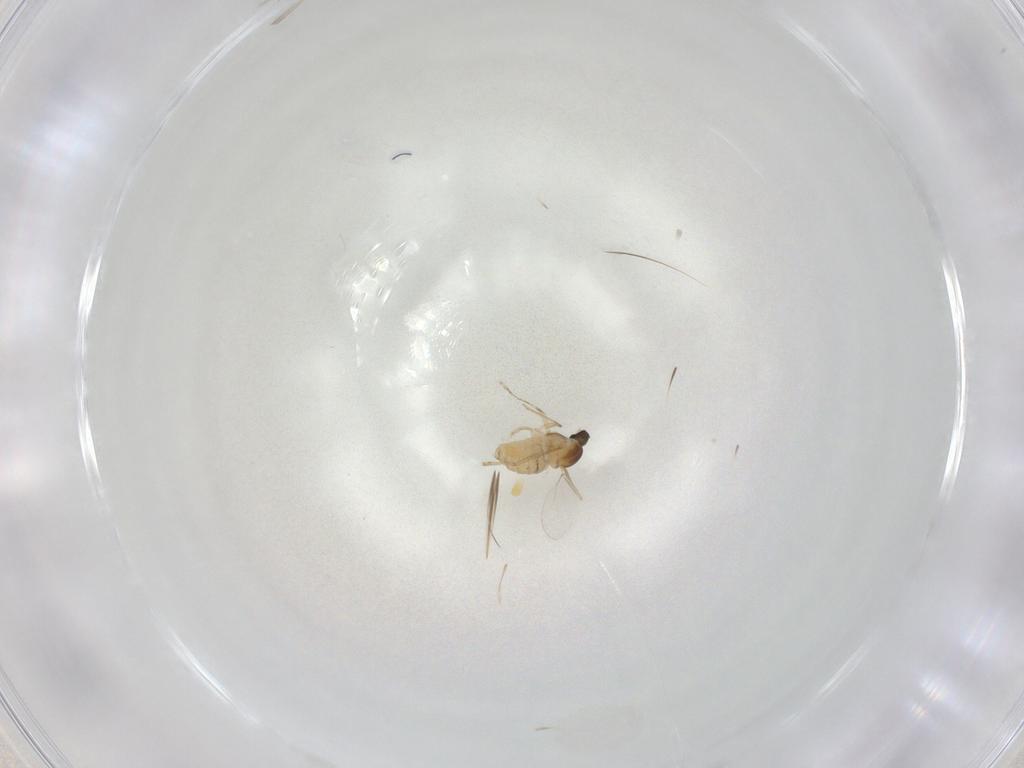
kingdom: Animalia
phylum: Arthropoda
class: Insecta
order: Diptera
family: Cecidomyiidae
